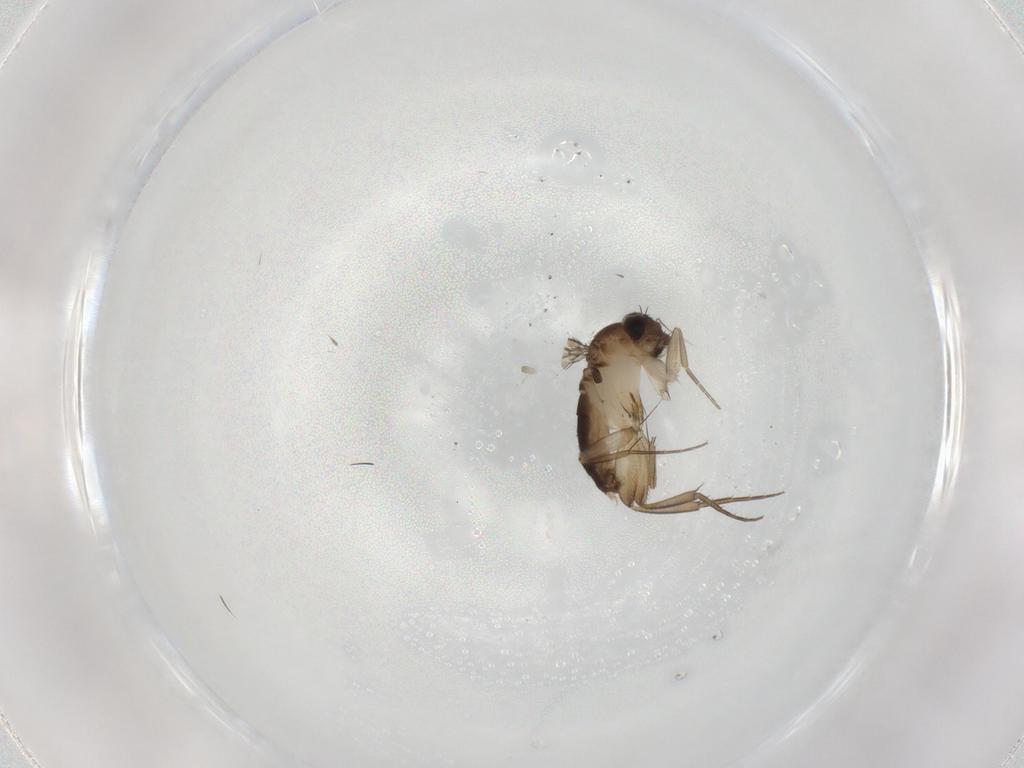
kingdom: Animalia
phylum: Arthropoda
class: Insecta
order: Diptera
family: Phoridae
